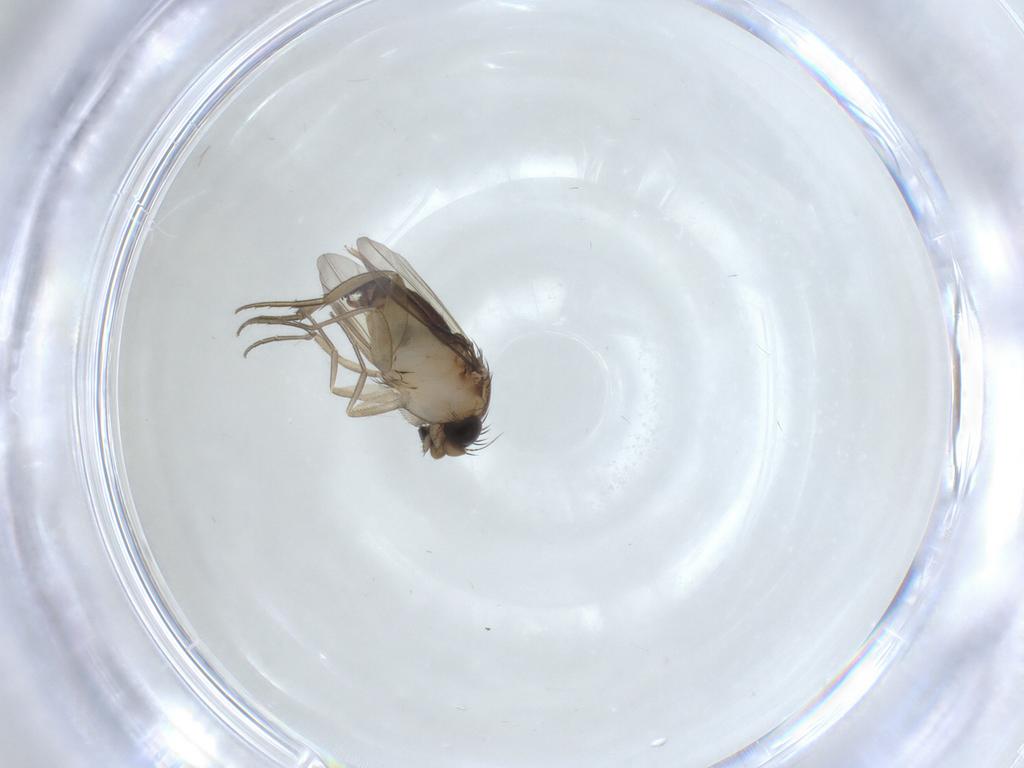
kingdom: Animalia
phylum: Arthropoda
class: Insecta
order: Diptera
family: Phoridae
